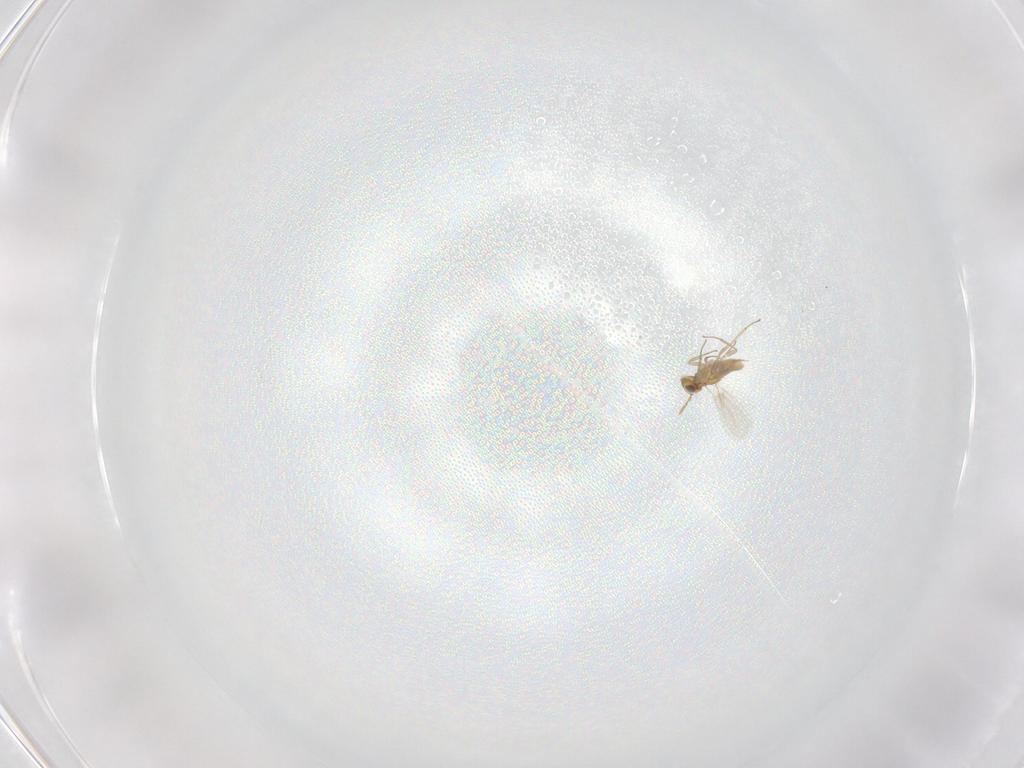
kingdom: Animalia
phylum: Arthropoda
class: Insecta
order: Hymenoptera
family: Aphelinidae
